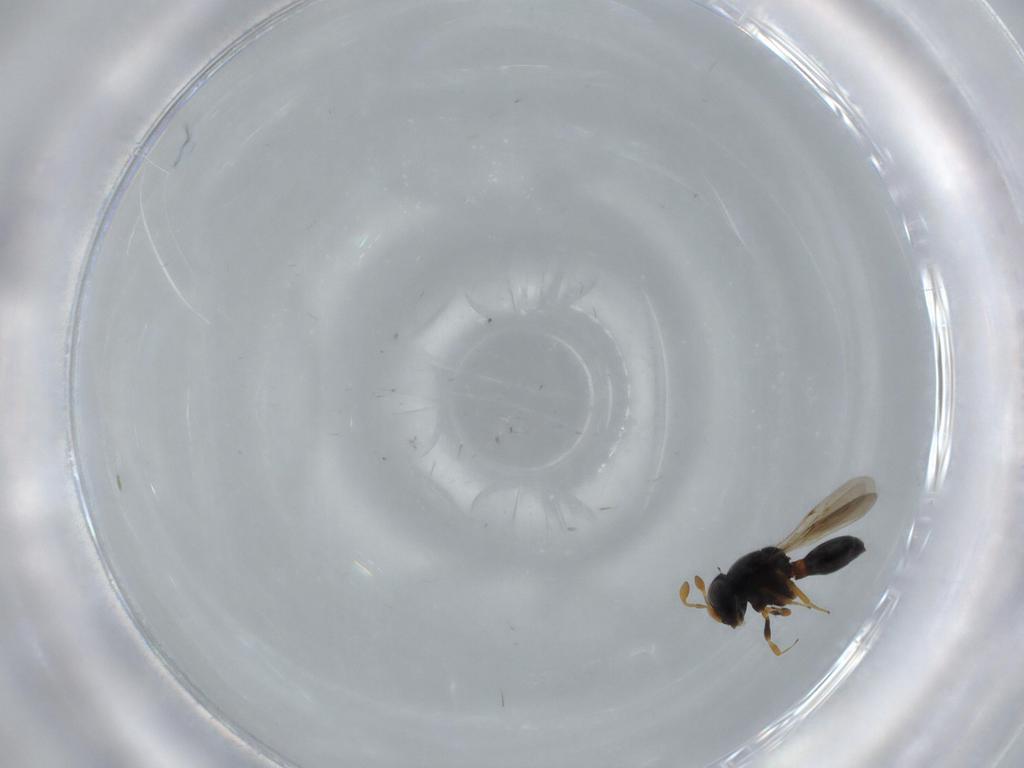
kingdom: Animalia
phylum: Arthropoda
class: Insecta
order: Hymenoptera
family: Scelionidae
